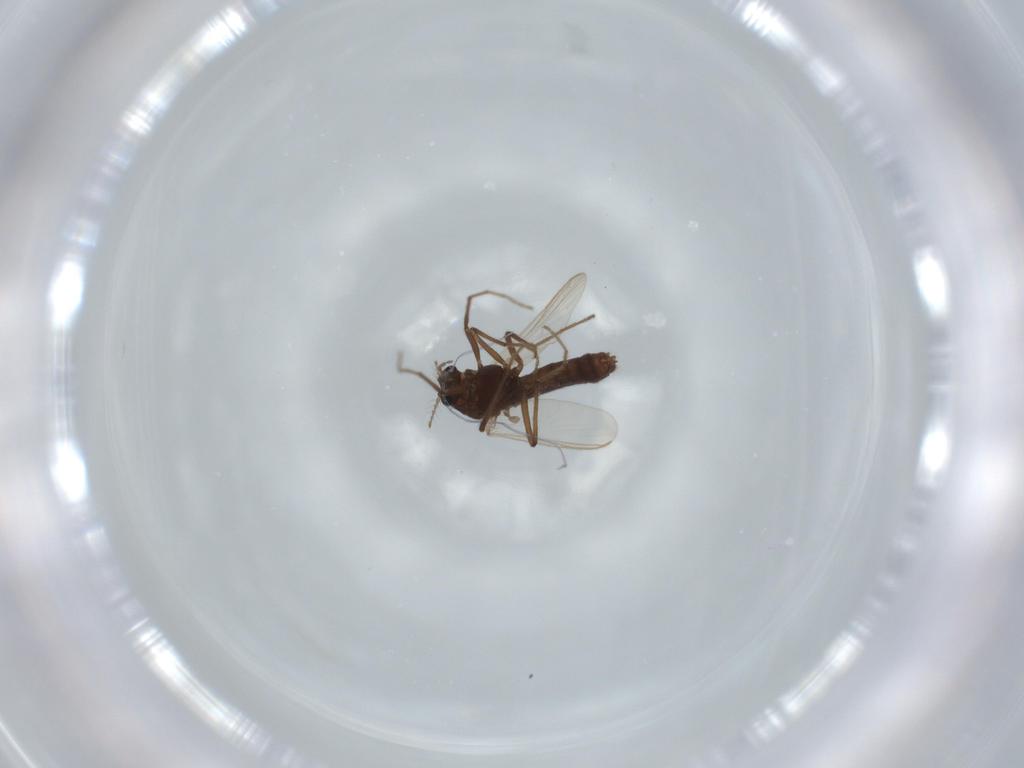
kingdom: Animalia
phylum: Arthropoda
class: Insecta
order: Diptera
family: Chironomidae
